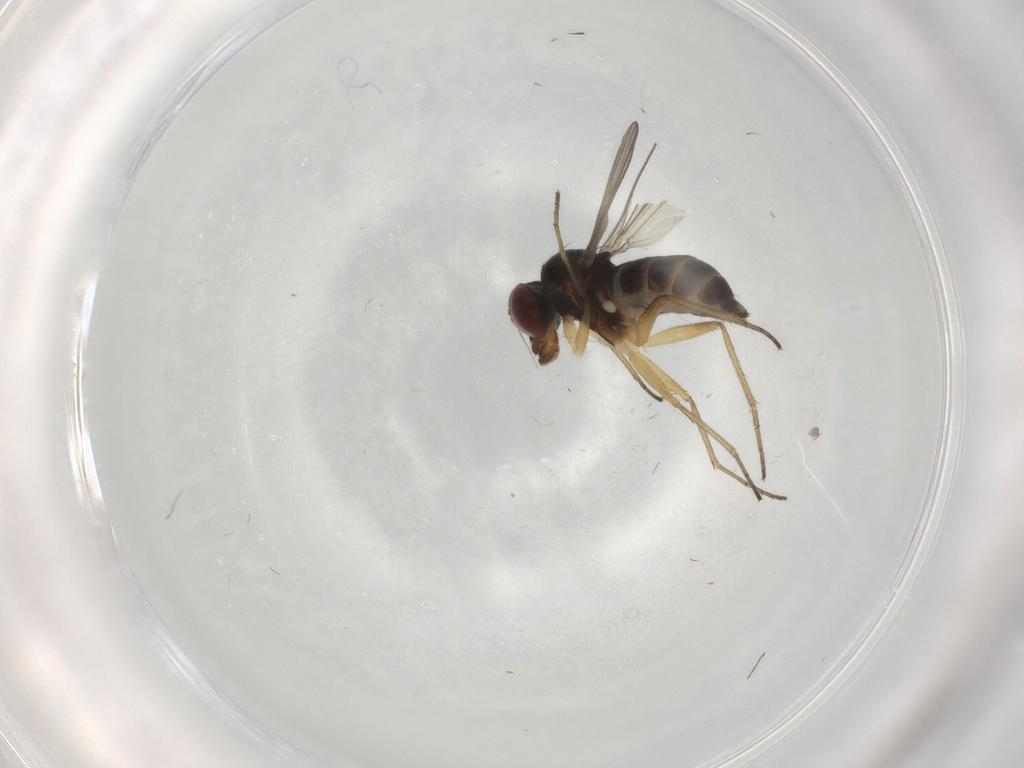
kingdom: Animalia
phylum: Arthropoda
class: Insecta
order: Diptera
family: Dolichopodidae
